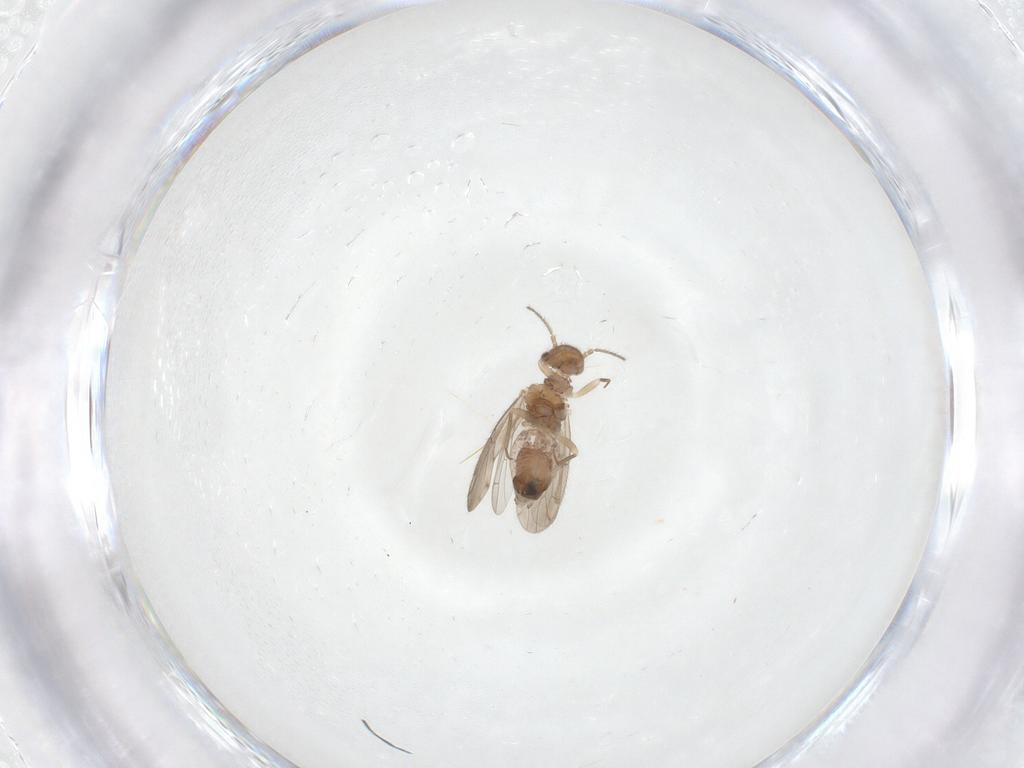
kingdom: Animalia
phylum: Arthropoda
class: Insecta
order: Psocodea
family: Ectopsocidae
